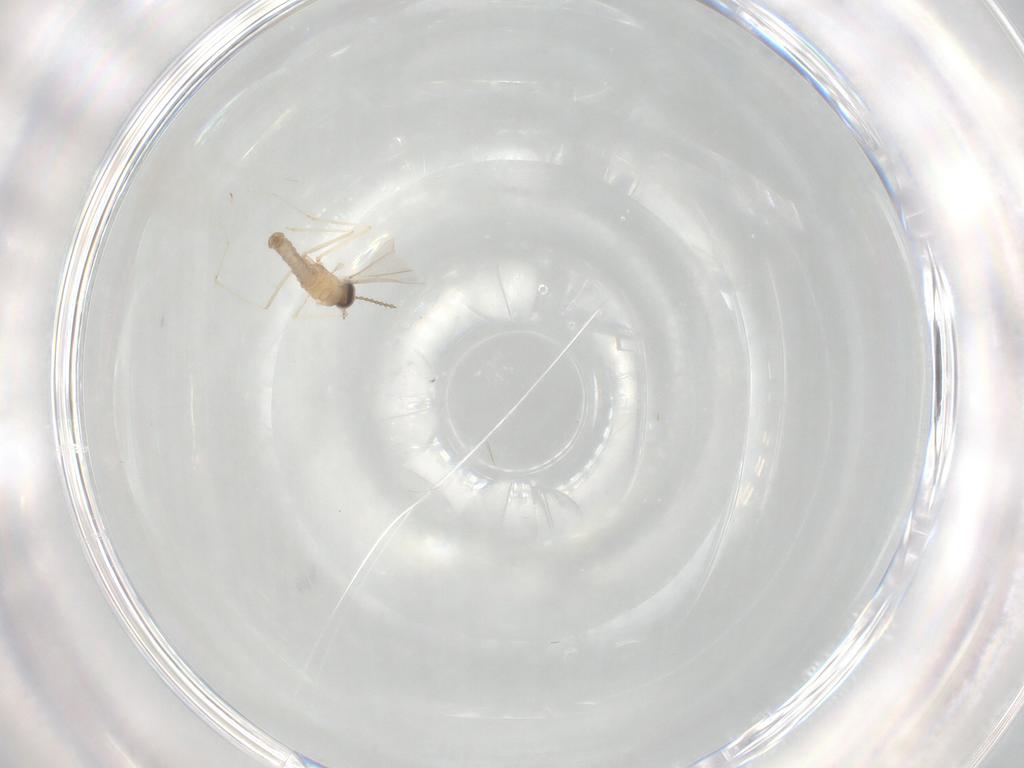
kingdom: Animalia
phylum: Arthropoda
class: Insecta
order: Diptera
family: Cecidomyiidae
